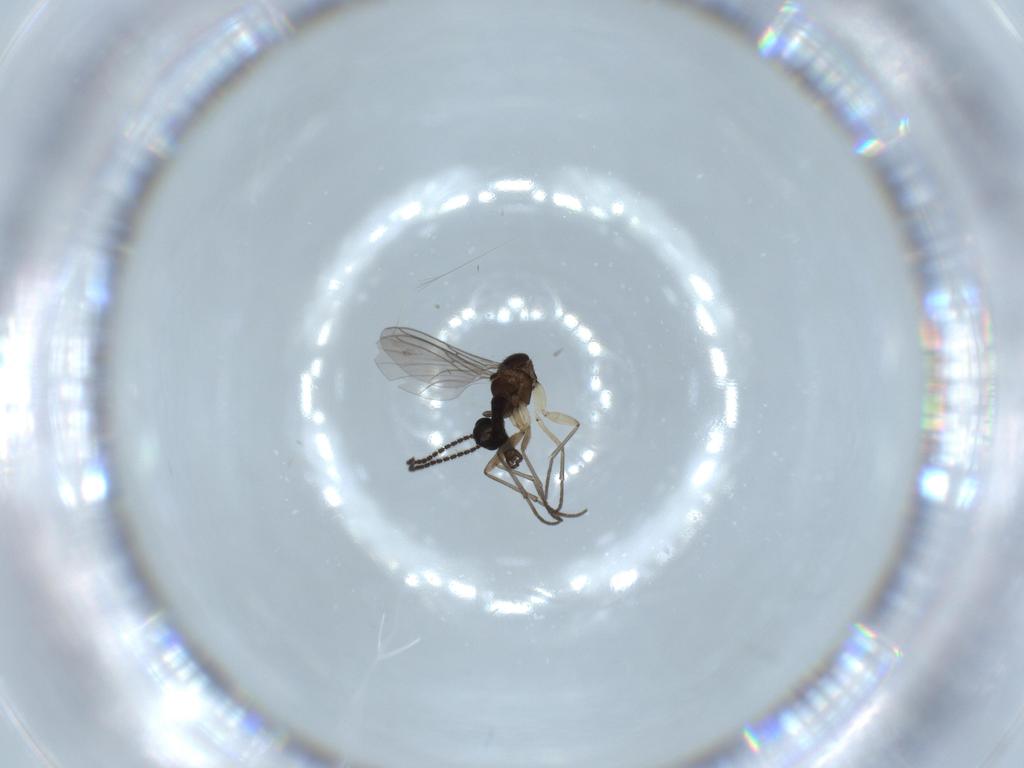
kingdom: Animalia
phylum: Arthropoda
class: Insecta
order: Diptera
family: Sciaridae
